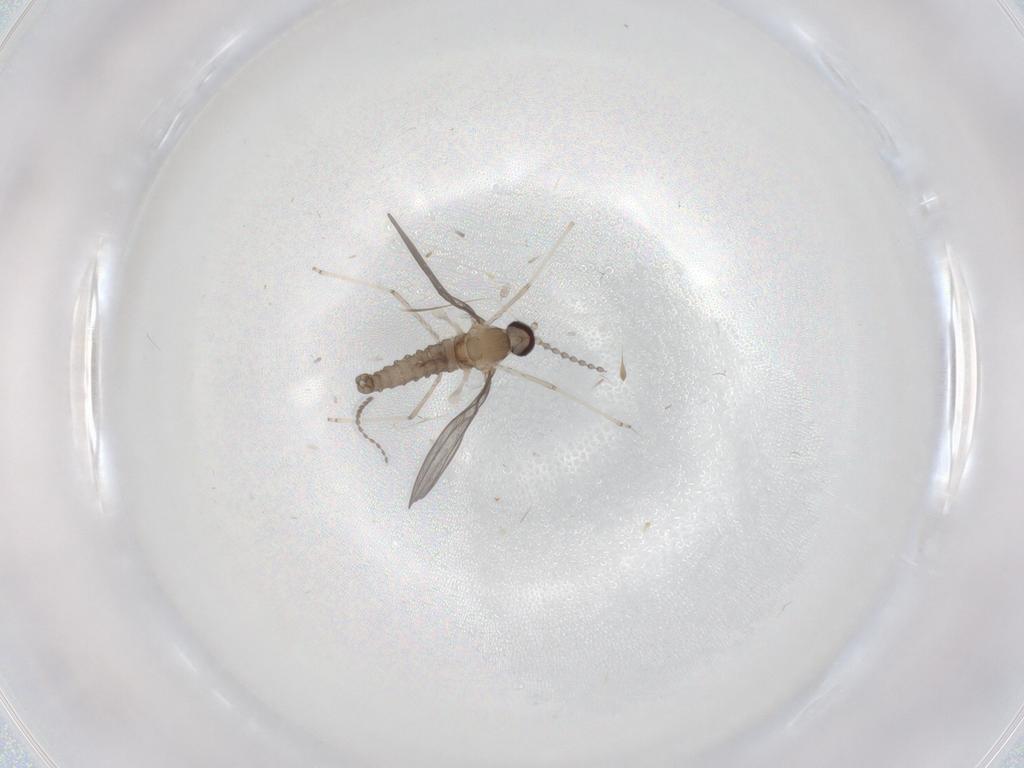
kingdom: Animalia
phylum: Arthropoda
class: Insecta
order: Diptera
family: Cecidomyiidae
